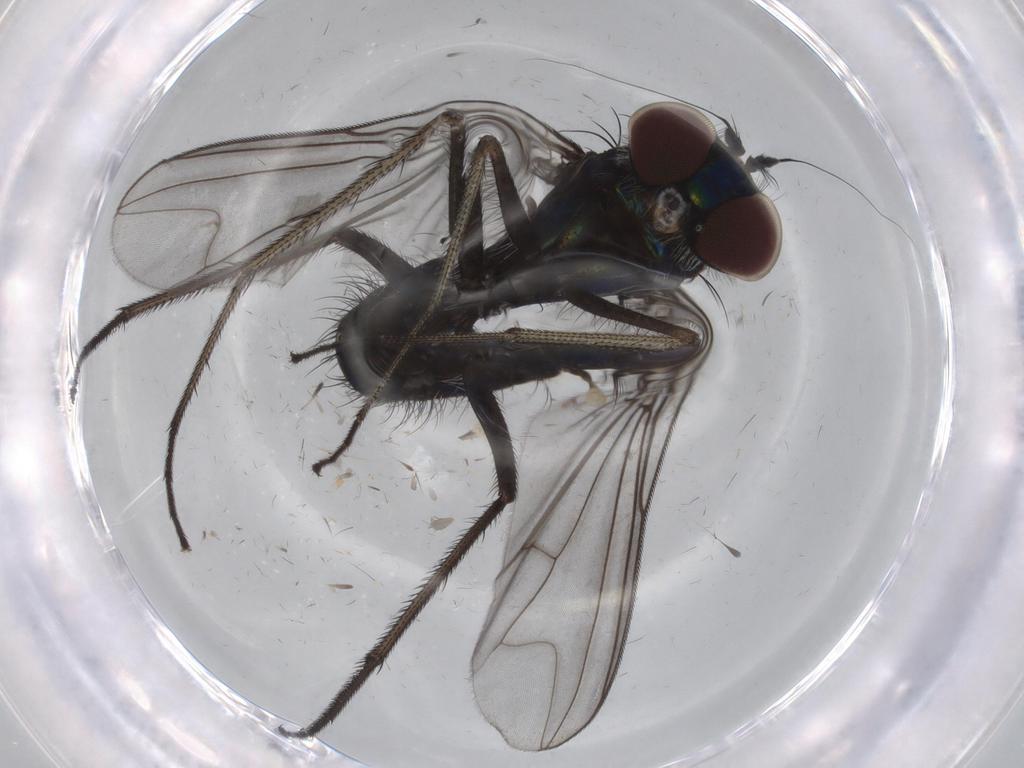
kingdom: Animalia
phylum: Arthropoda
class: Insecta
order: Diptera
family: Dolichopodidae
